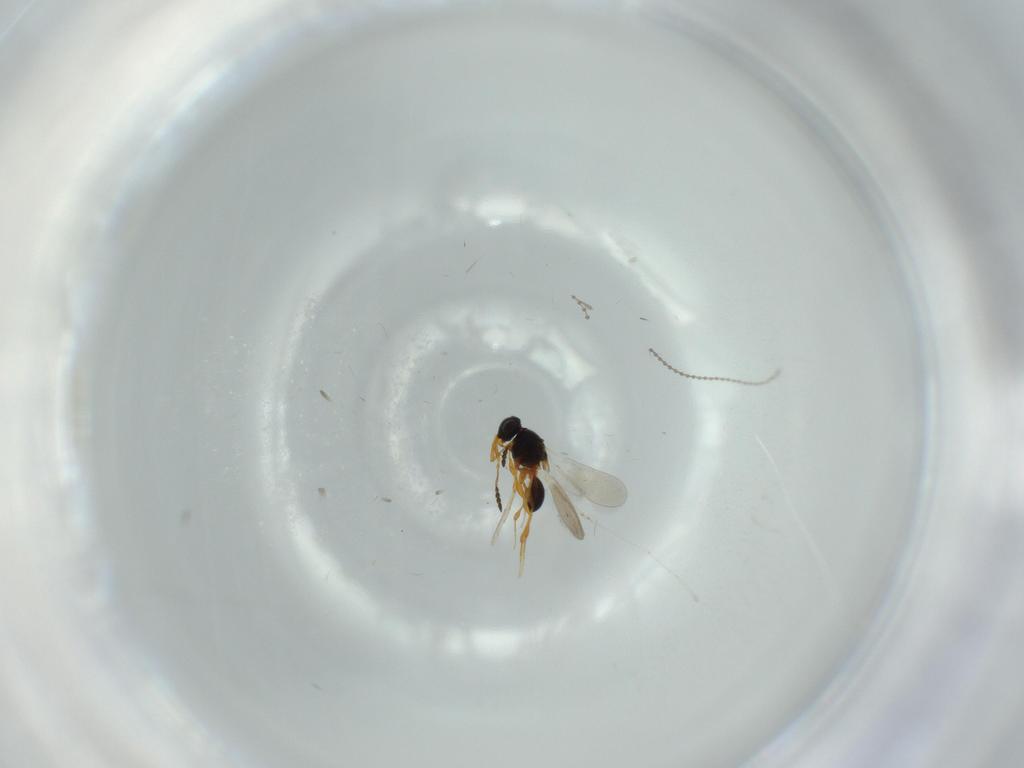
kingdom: Animalia
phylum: Arthropoda
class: Insecta
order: Hymenoptera
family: Platygastridae
